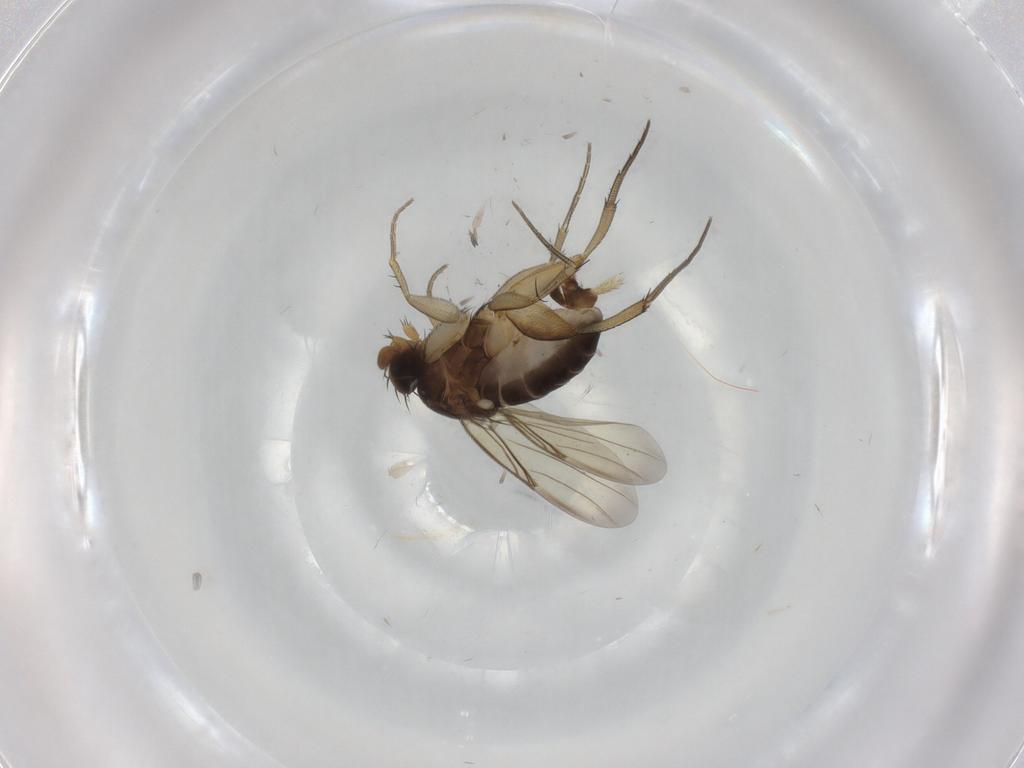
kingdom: Animalia
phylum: Arthropoda
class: Insecta
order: Diptera
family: Phoridae
